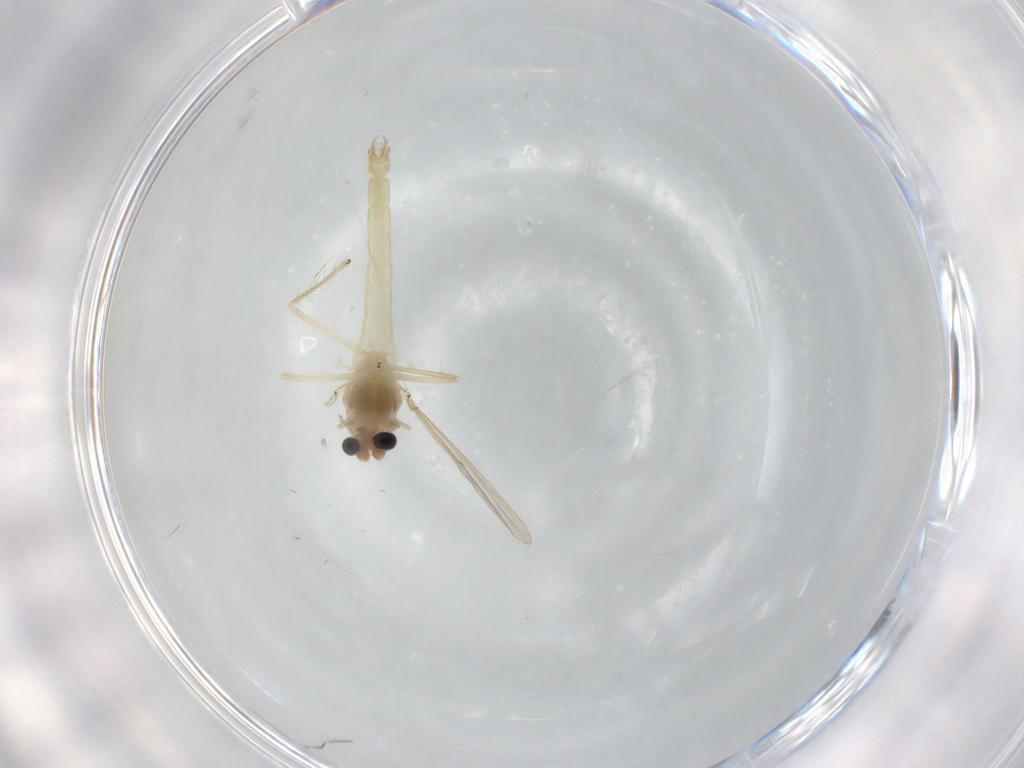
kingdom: Animalia
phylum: Arthropoda
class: Insecta
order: Diptera
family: Chironomidae
